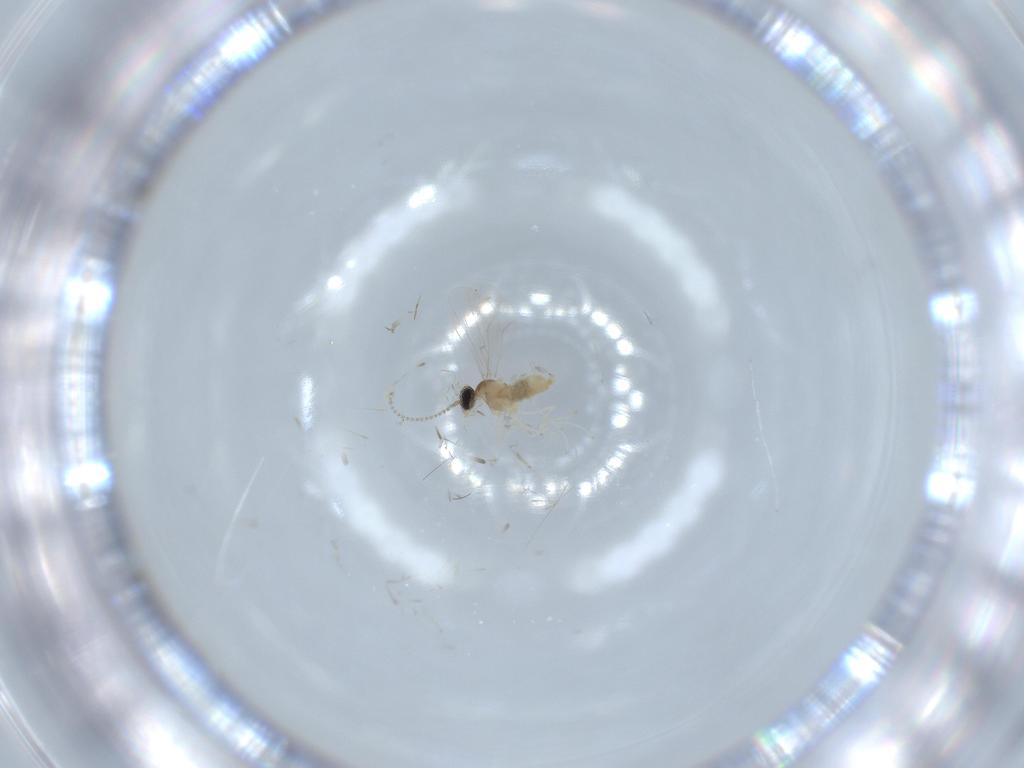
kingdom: Animalia
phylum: Arthropoda
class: Insecta
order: Diptera
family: Cecidomyiidae
